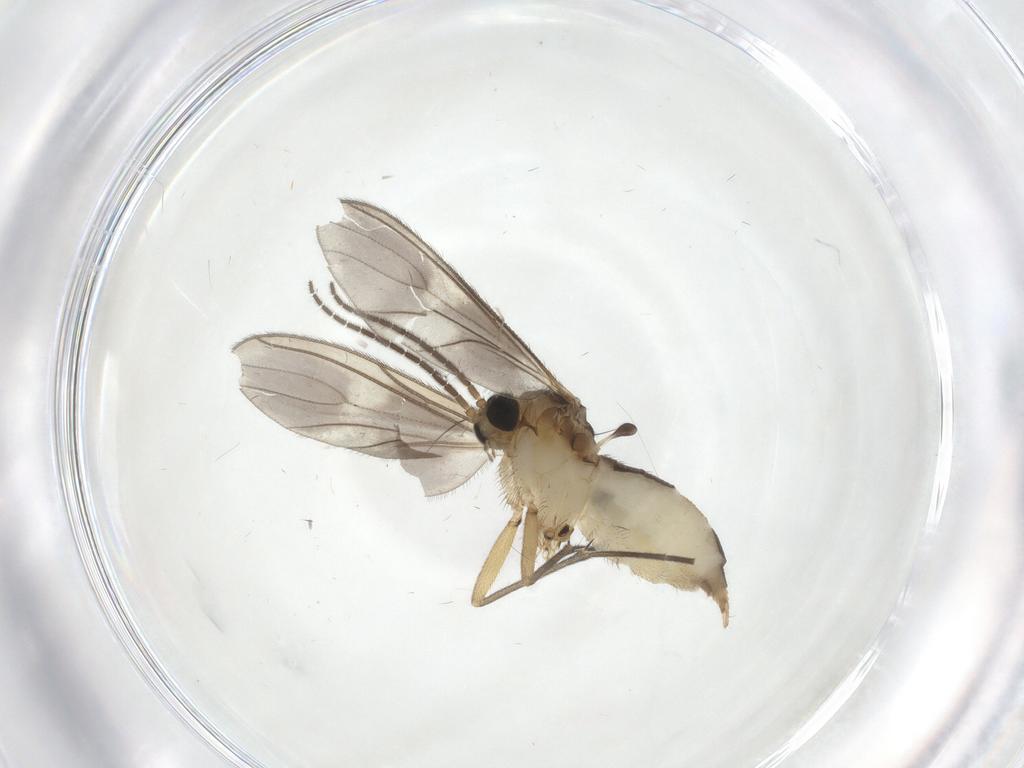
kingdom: Animalia
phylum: Arthropoda
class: Insecta
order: Diptera
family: Sciaridae
